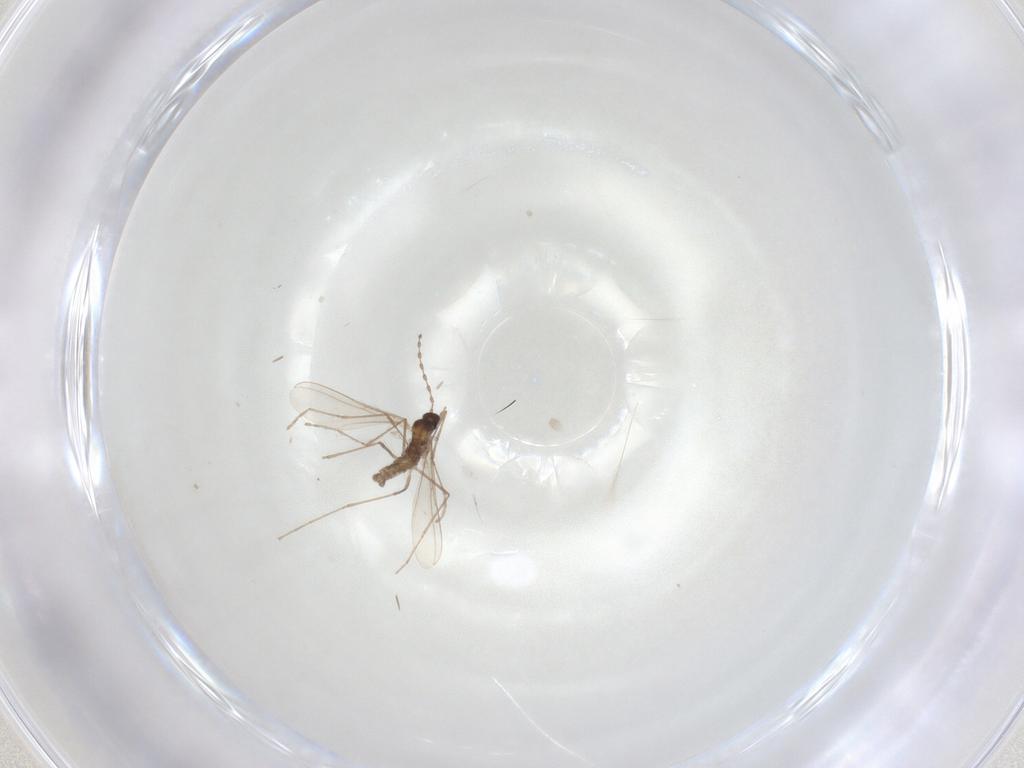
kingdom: Animalia
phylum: Arthropoda
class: Insecta
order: Diptera
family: Cecidomyiidae
